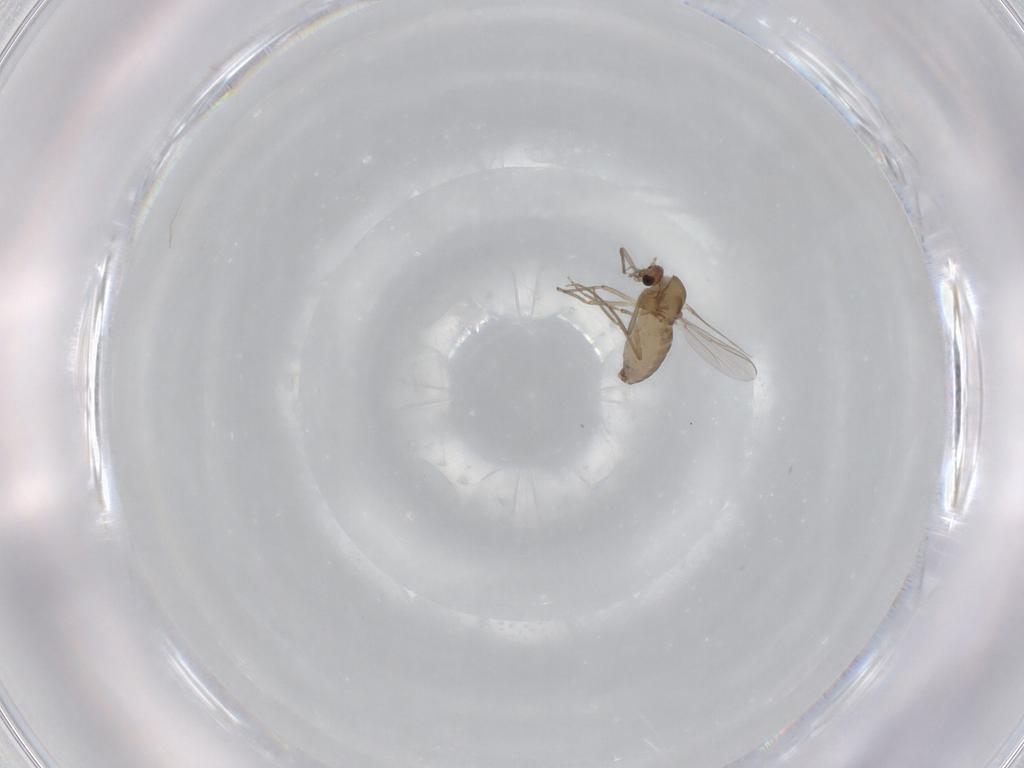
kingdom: Animalia
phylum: Arthropoda
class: Insecta
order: Diptera
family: Chironomidae
